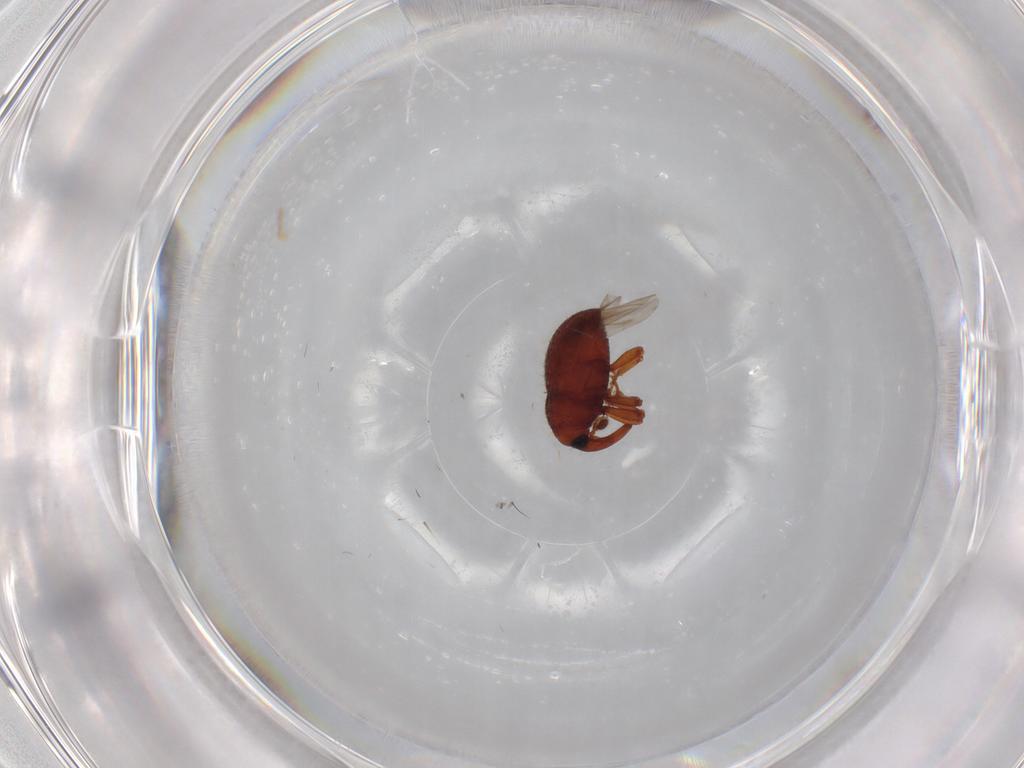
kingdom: Animalia
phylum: Arthropoda
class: Insecta
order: Coleoptera
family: Curculionidae
